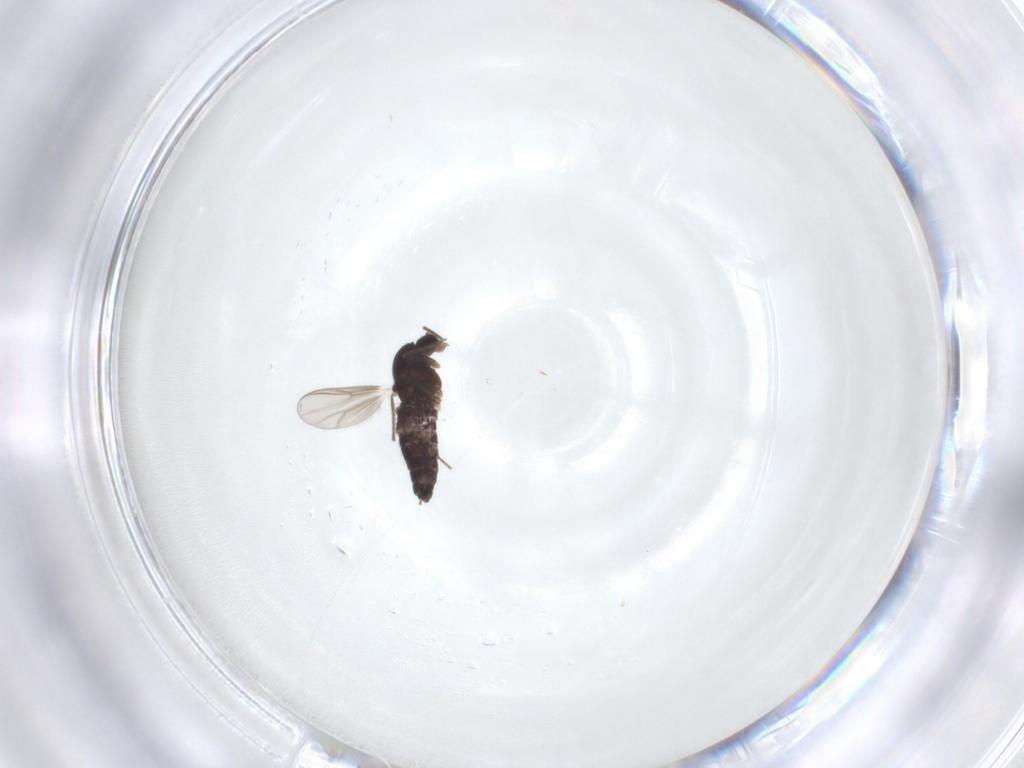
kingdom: Animalia
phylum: Arthropoda
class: Insecta
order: Diptera
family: Chironomidae
